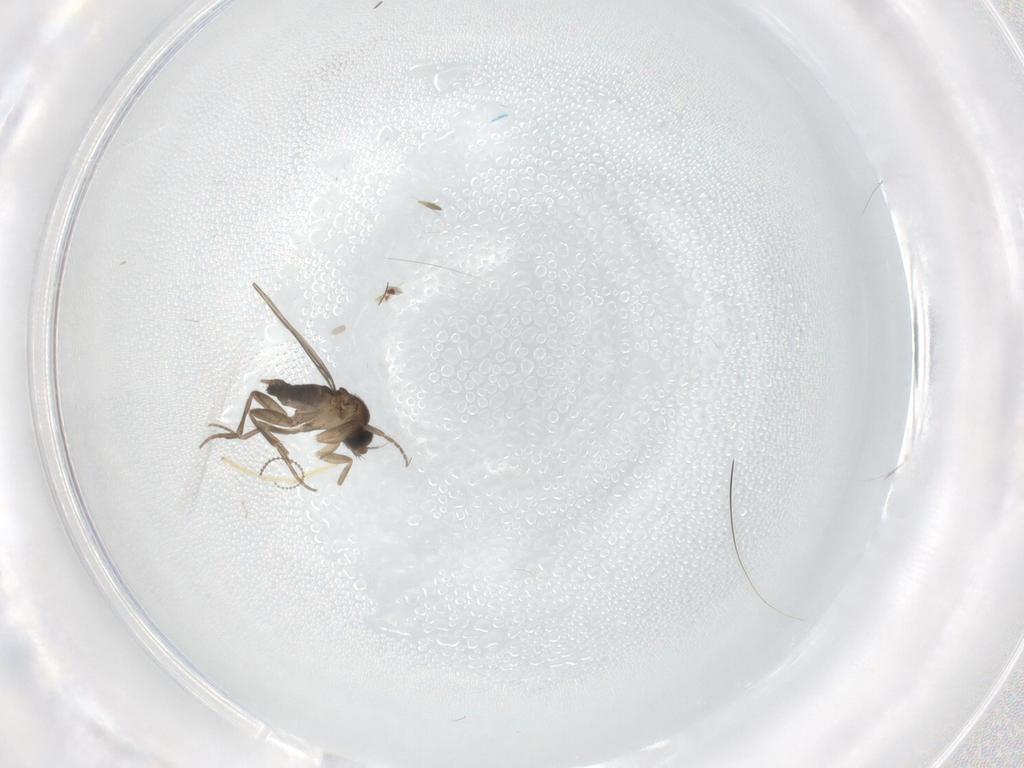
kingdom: Animalia
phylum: Arthropoda
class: Insecta
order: Diptera
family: Cecidomyiidae
